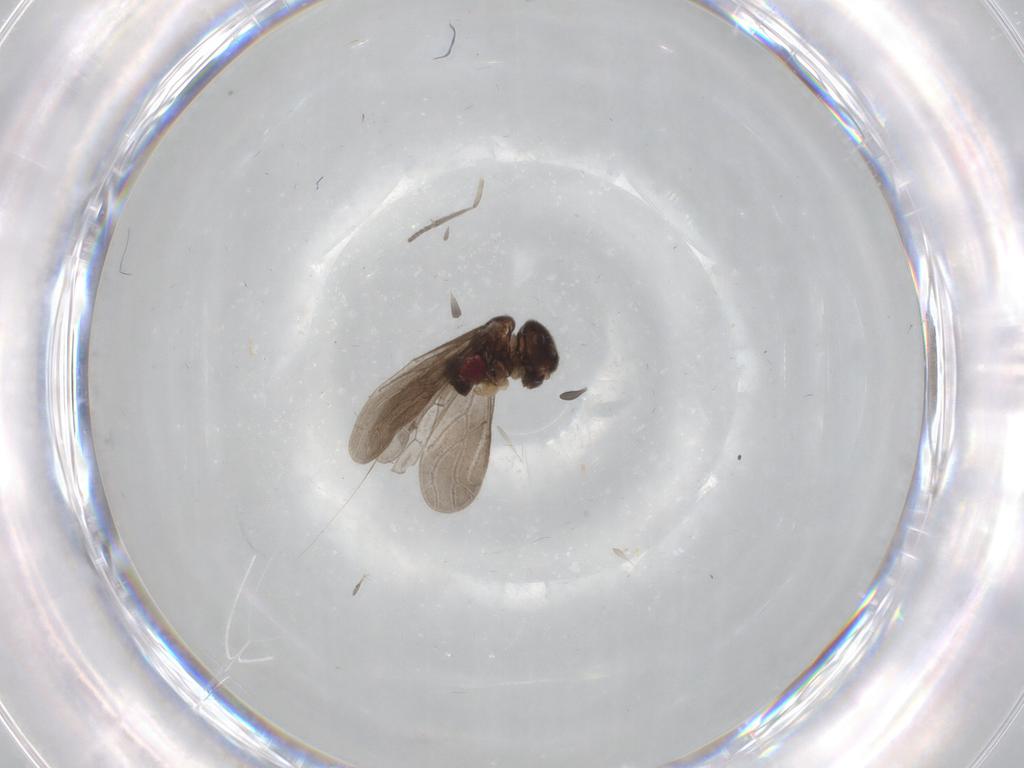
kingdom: Animalia
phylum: Arthropoda
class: Insecta
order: Psocodea
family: Archipsocidae
